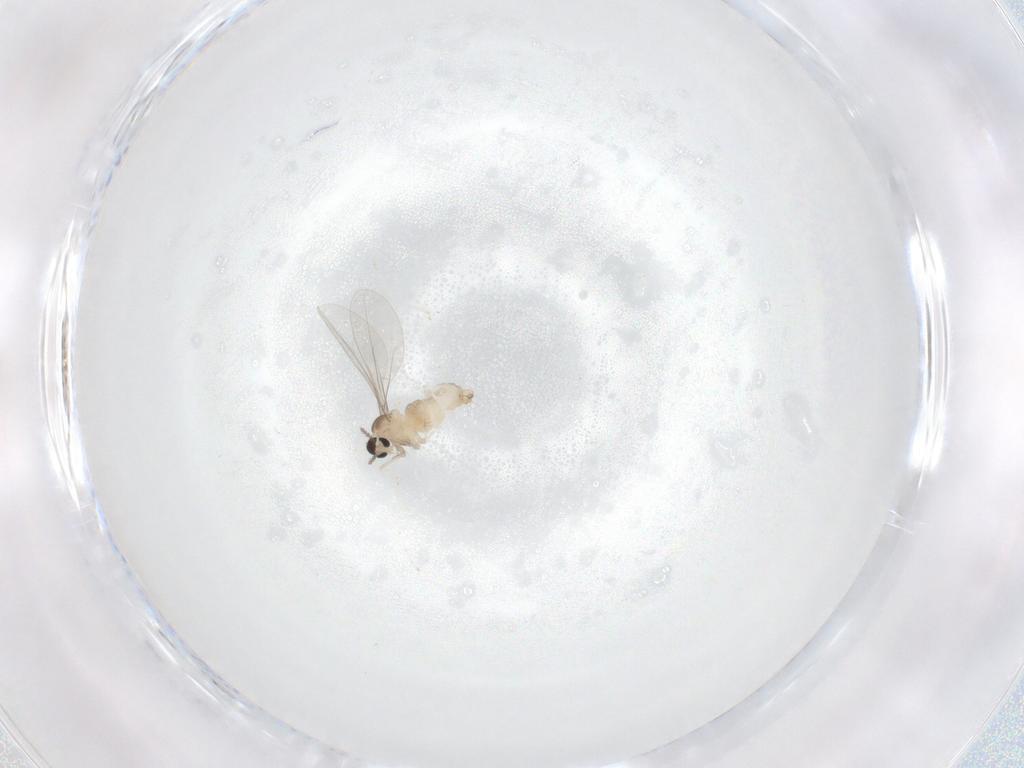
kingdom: Animalia
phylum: Arthropoda
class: Insecta
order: Diptera
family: Cecidomyiidae
